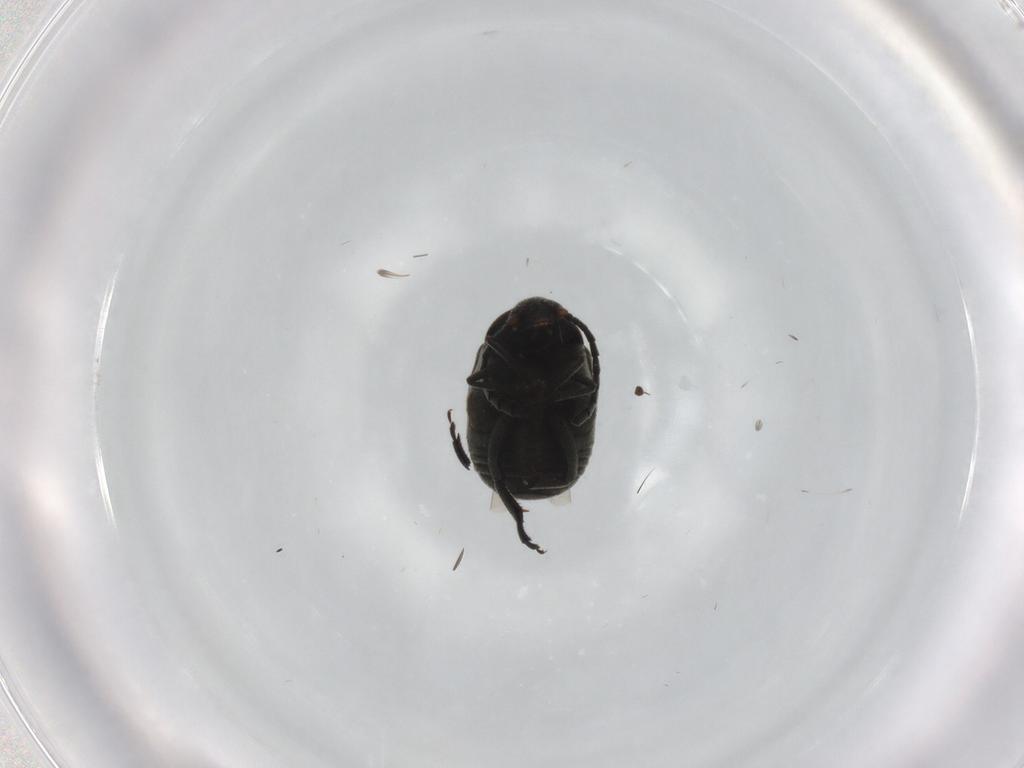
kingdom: Animalia
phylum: Arthropoda
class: Insecta
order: Coleoptera
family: Chrysomelidae
